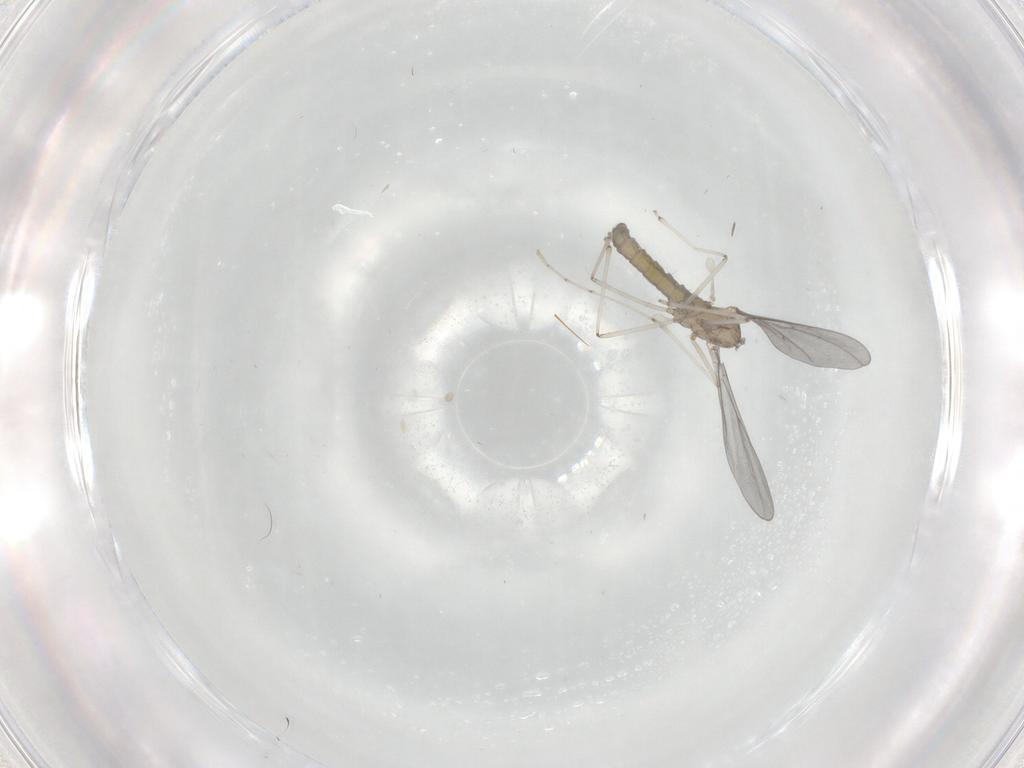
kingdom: Animalia
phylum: Arthropoda
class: Insecta
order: Diptera
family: Cecidomyiidae
